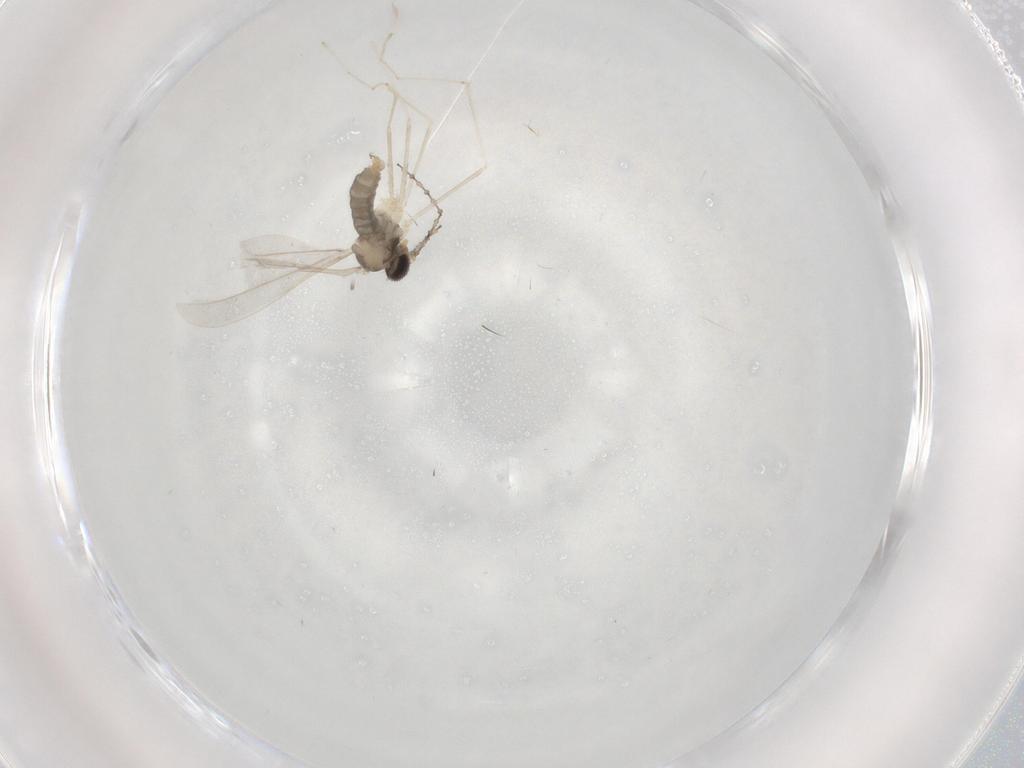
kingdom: Animalia
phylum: Arthropoda
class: Insecta
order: Diptera
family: Cecidomyiidae
